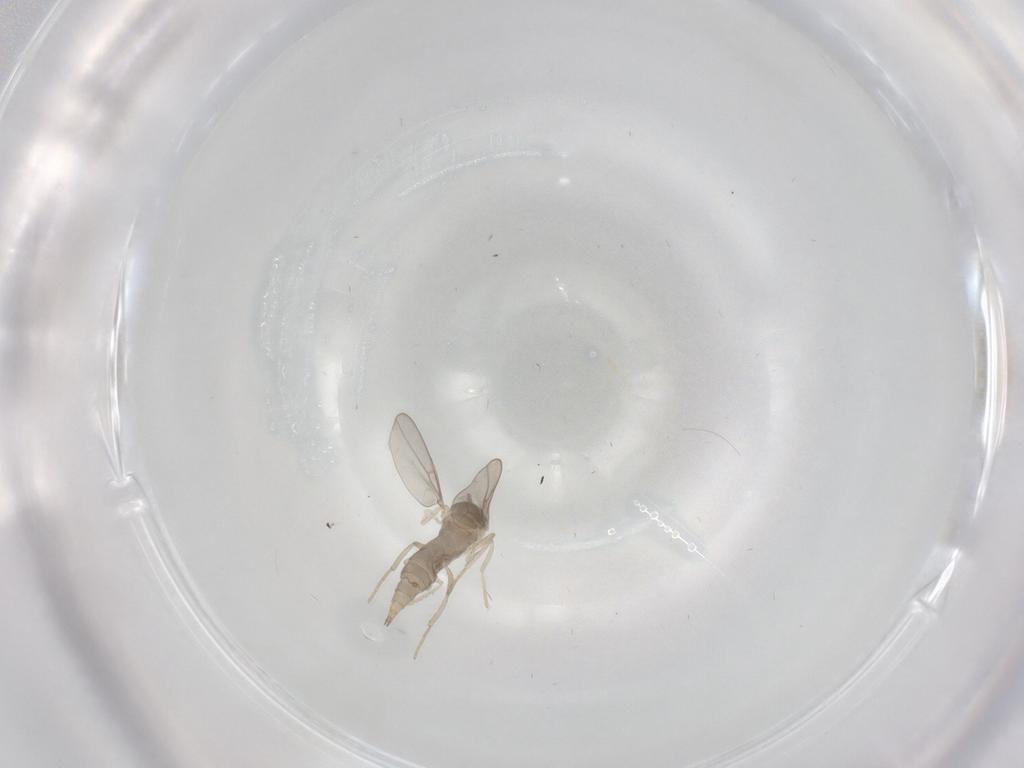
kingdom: Animalia
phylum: Arthropoda
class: Insecta
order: Diptera
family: Cecidomyiidae
